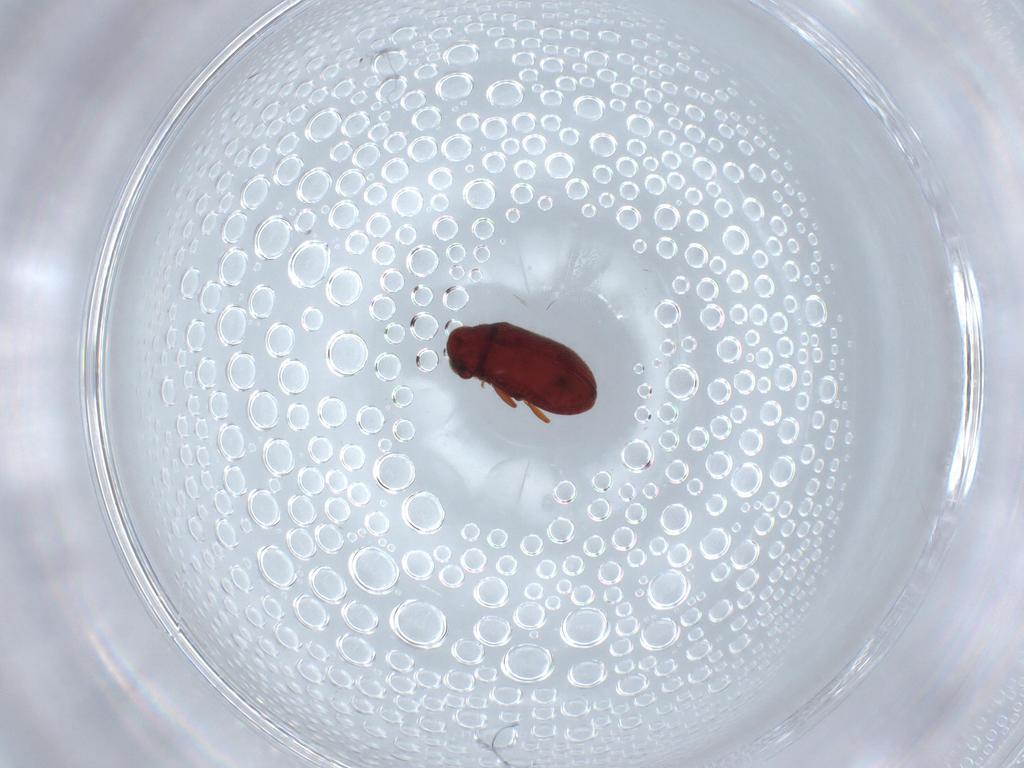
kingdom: Animalia
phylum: Arthropoda
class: Insecta
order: Coleoptera
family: Ptinidae
